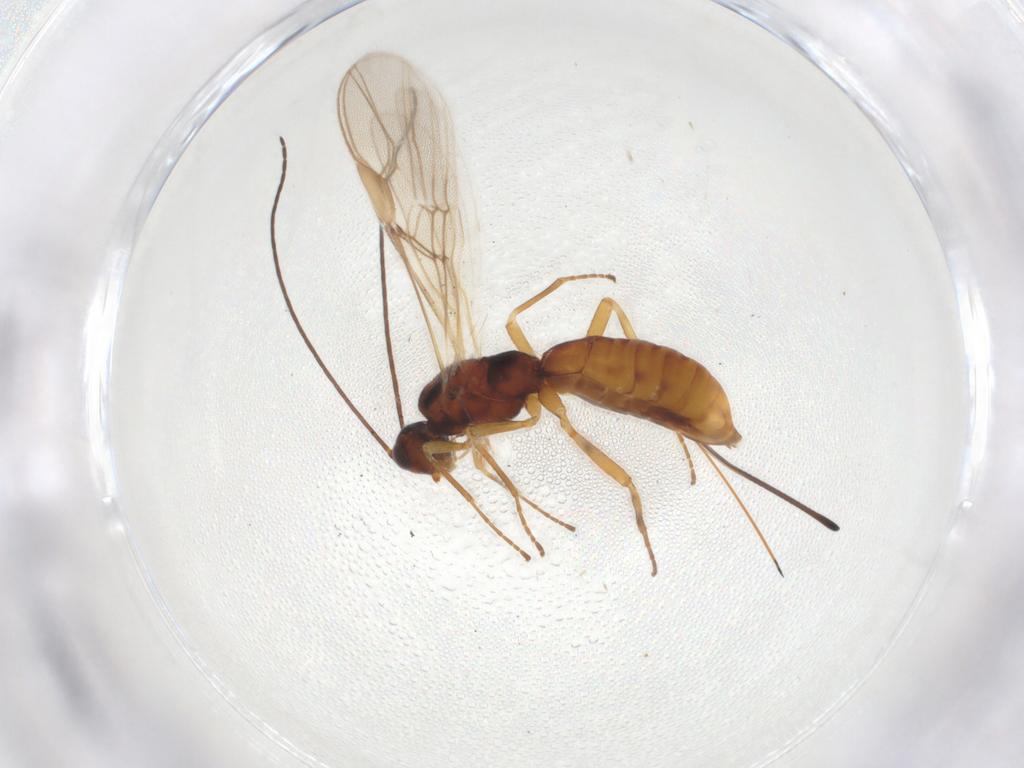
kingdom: Animalia
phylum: Arthropoda
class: Insecta
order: Hymenoptera
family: Braconidae
